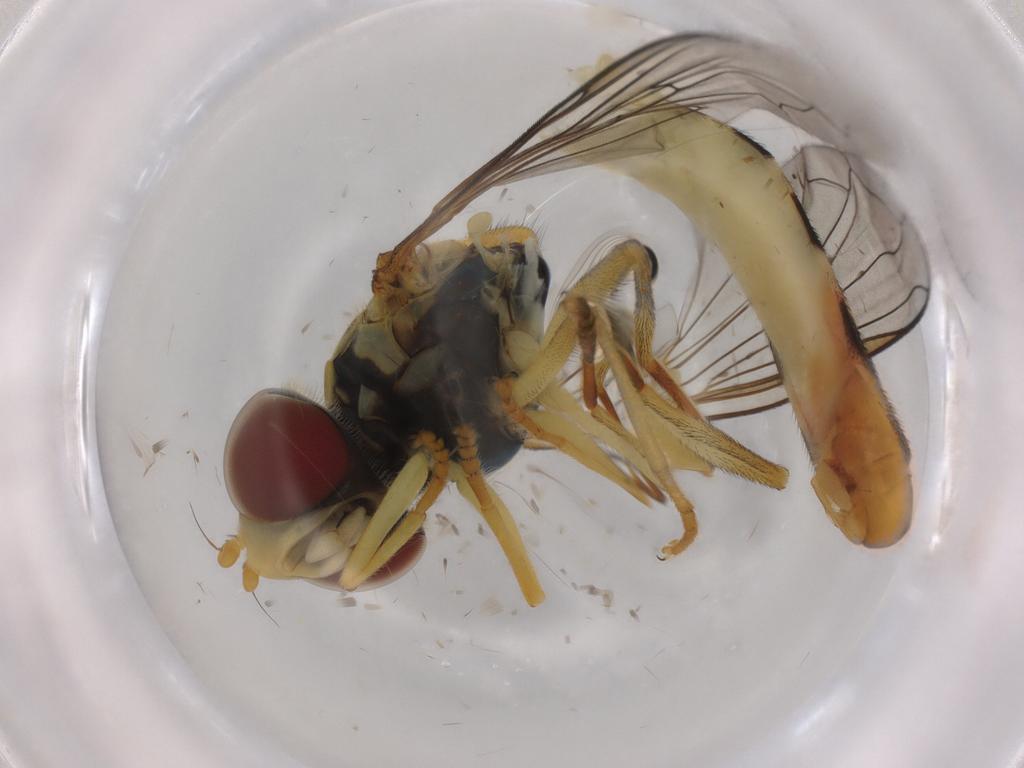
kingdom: Animalia
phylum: Arthropoda
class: Insecta
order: Diptera
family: Syrphidae
